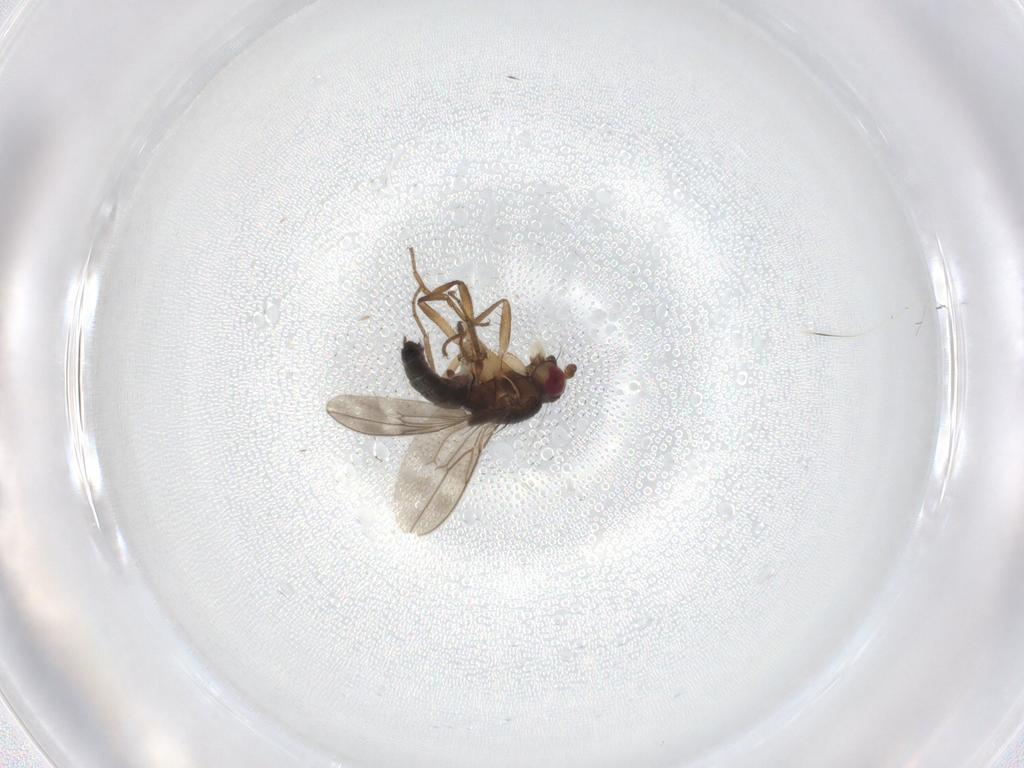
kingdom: Animalia
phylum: Arthropoda
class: Insecta
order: Diptera
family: Sphaeroceridae
